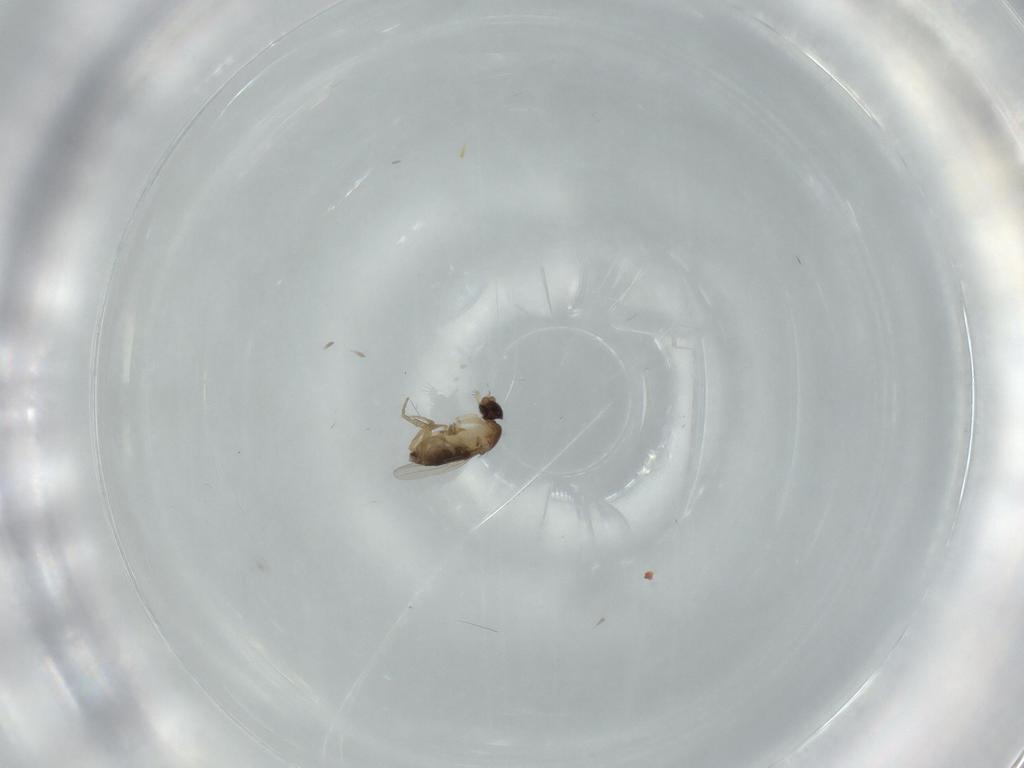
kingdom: Animalia
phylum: Arthropoda
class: Insecta
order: Diptera
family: Phoridae
